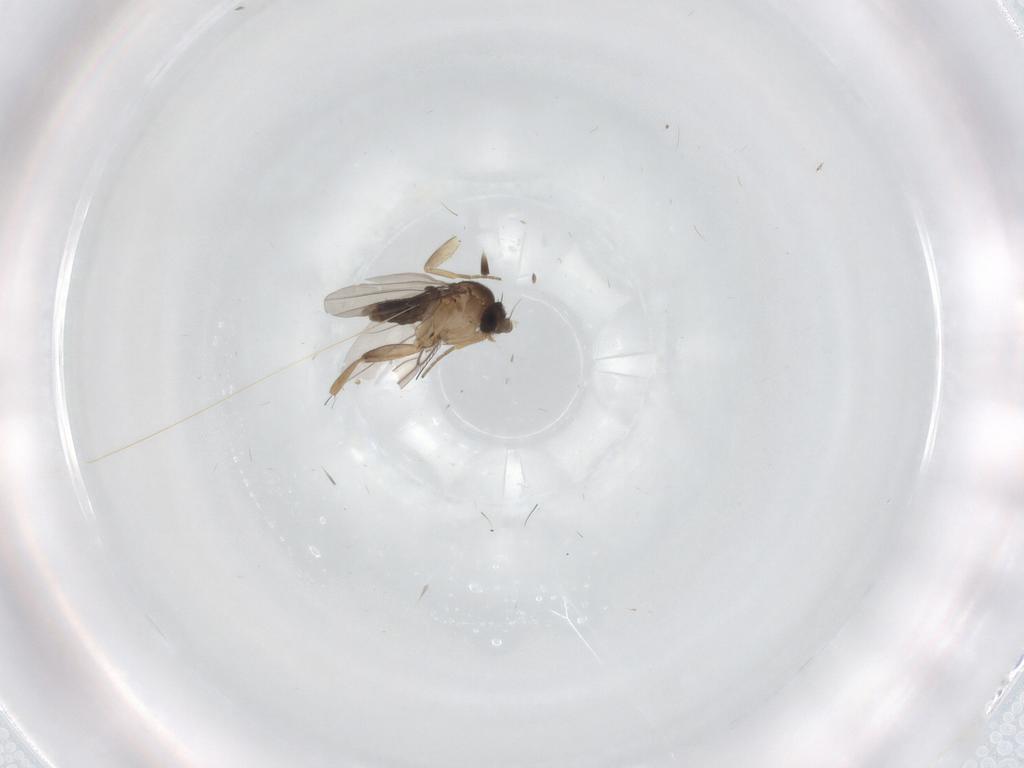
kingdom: Animalia
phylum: Arthropoda
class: Insecta
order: Diptera
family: Phoridae
